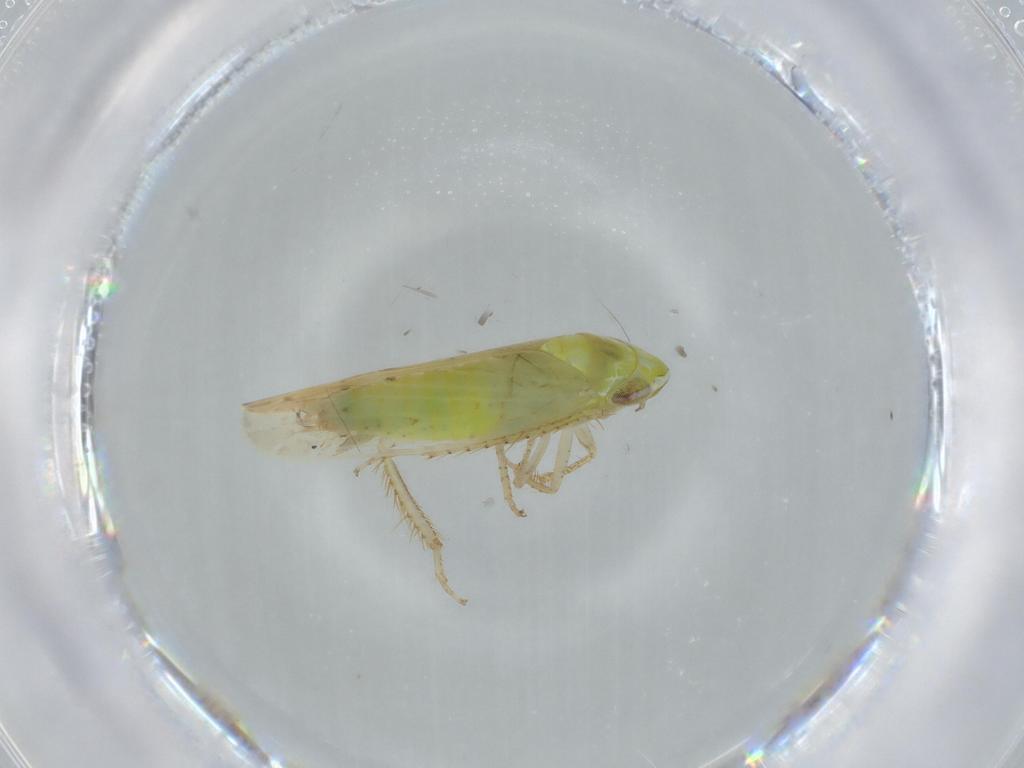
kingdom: Animalia
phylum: Arthropoda
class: Insecta
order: Hemiptera
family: Cicadellidae
